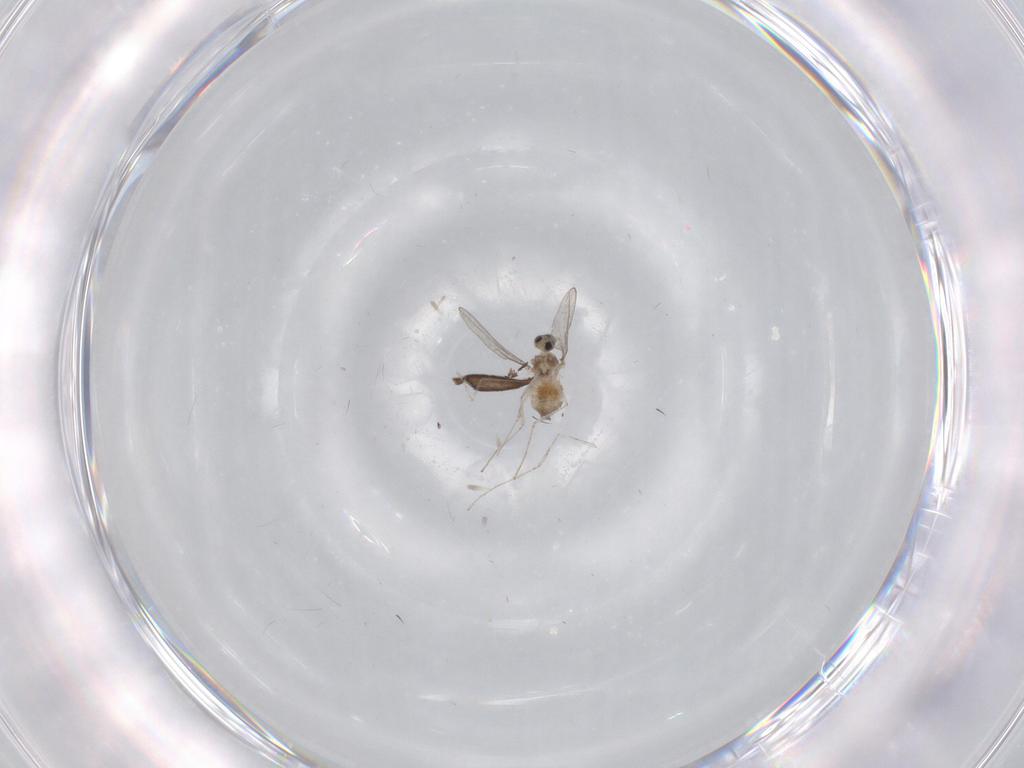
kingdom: Animalia
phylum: Arthropoda
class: Insecta
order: Diptera
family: Cecidomyiidae
